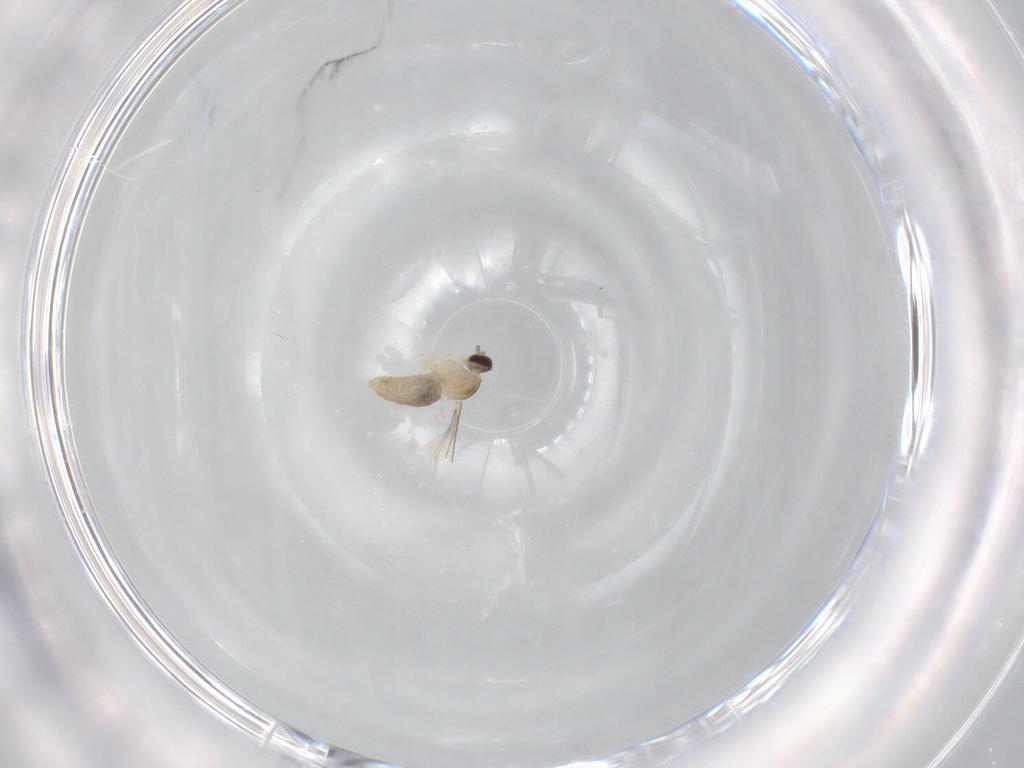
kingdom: Animalia
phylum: Arthropoda
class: Insecta
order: Diptera
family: Cecidomyiidae
